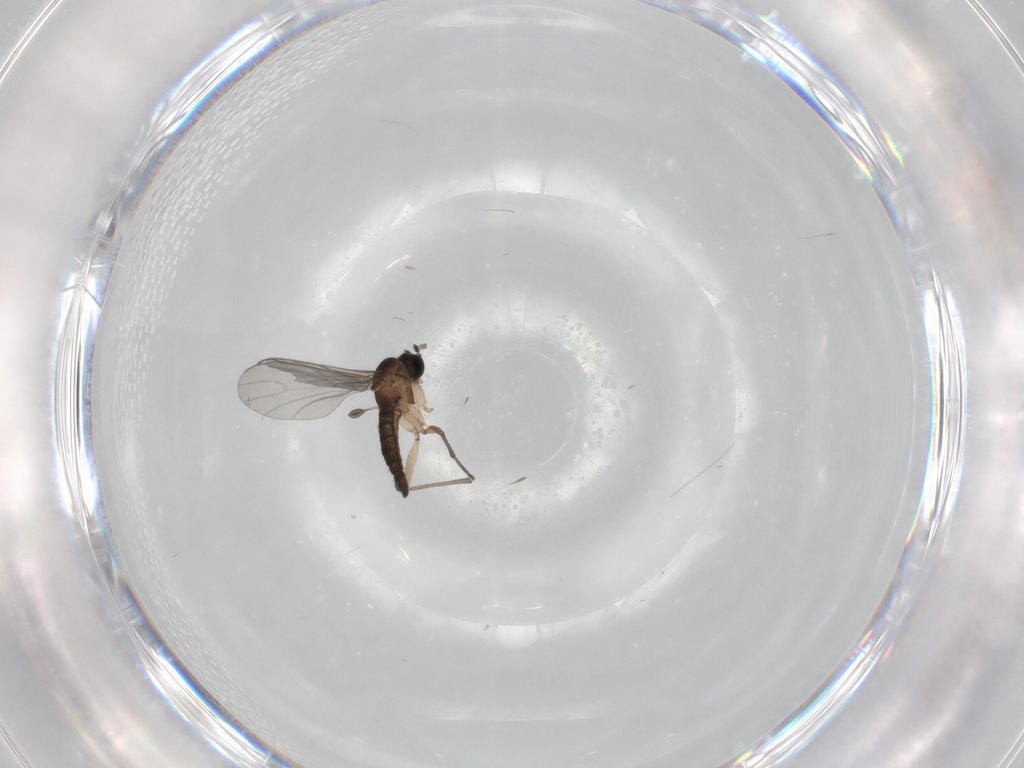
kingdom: Animalia
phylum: Arthropoda
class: Insecta
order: Diptera
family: Sciaridae
